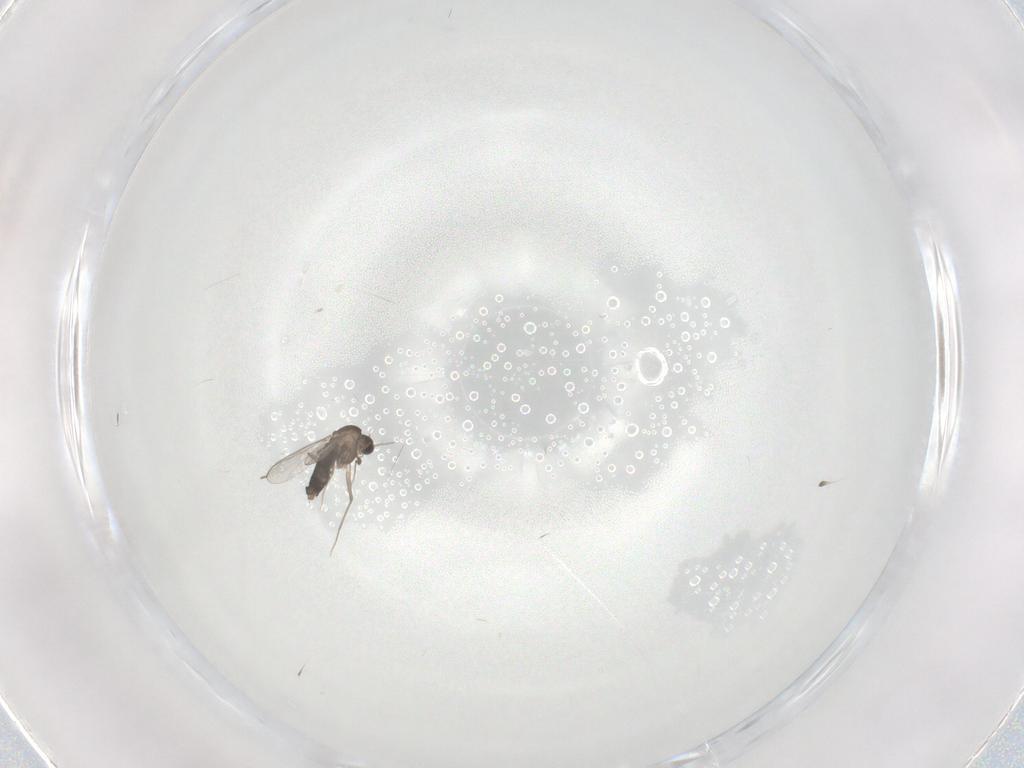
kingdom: Animalia
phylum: Arthropoda
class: Insecta
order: Diptera
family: Chironomidae
